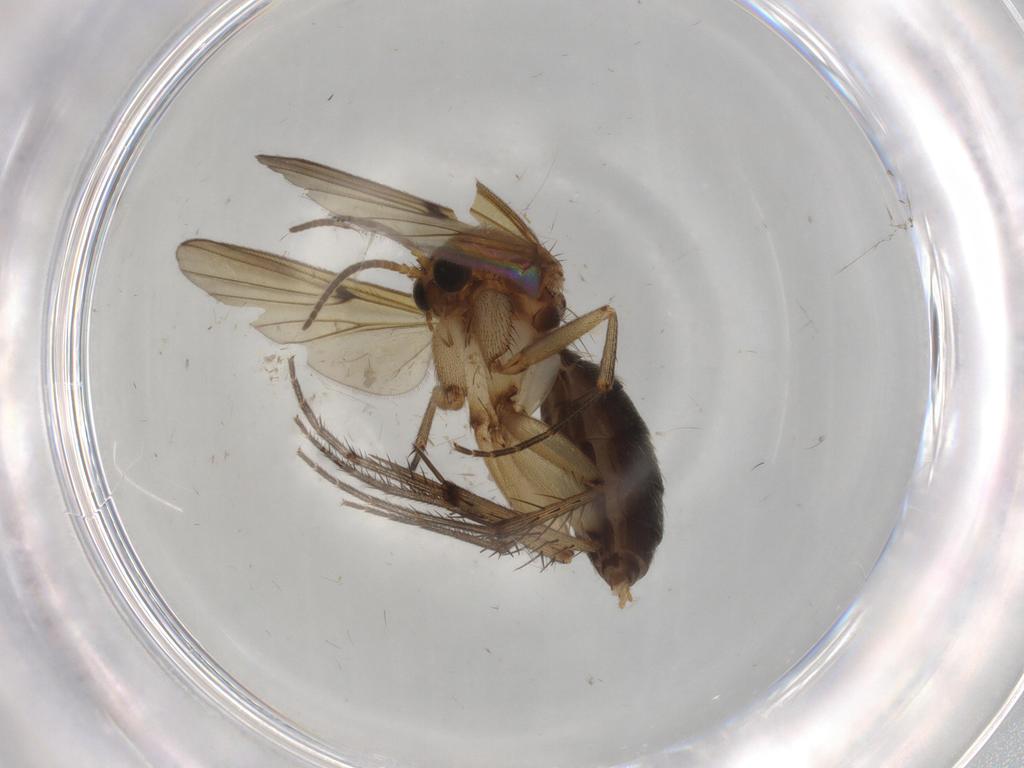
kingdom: Animalia
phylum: Arthropoda
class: Insecta
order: Diptera
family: Mycetophilidae
